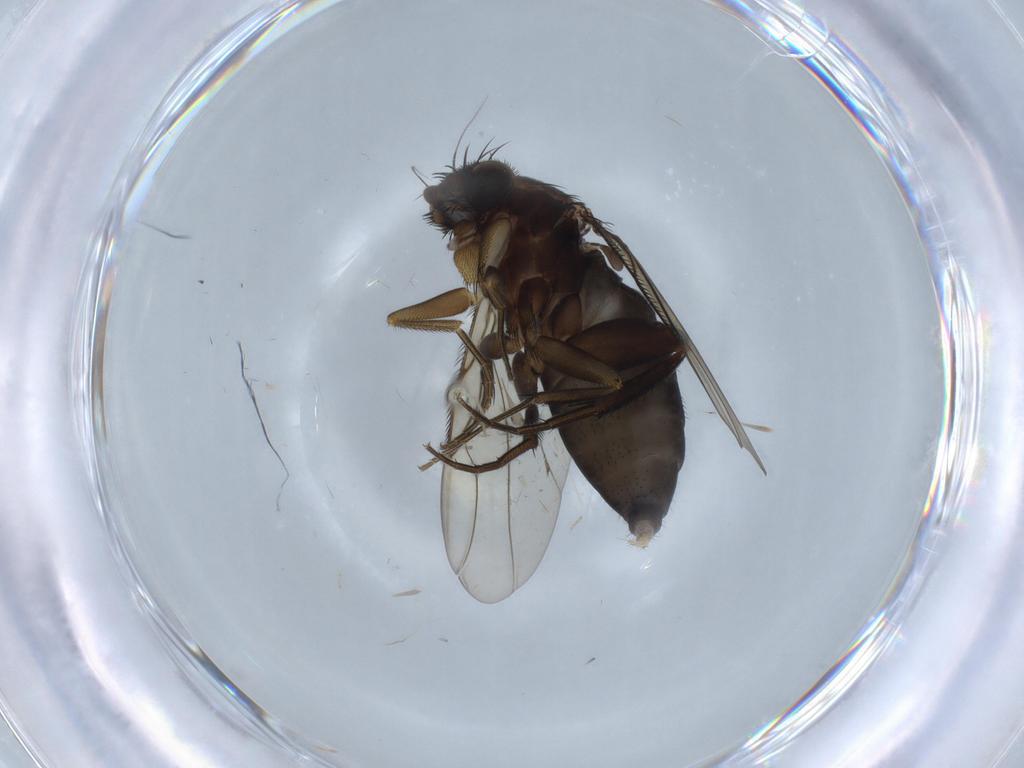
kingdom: Animalia
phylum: Arthropoda
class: Insecta
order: Diptera
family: Phoridae
